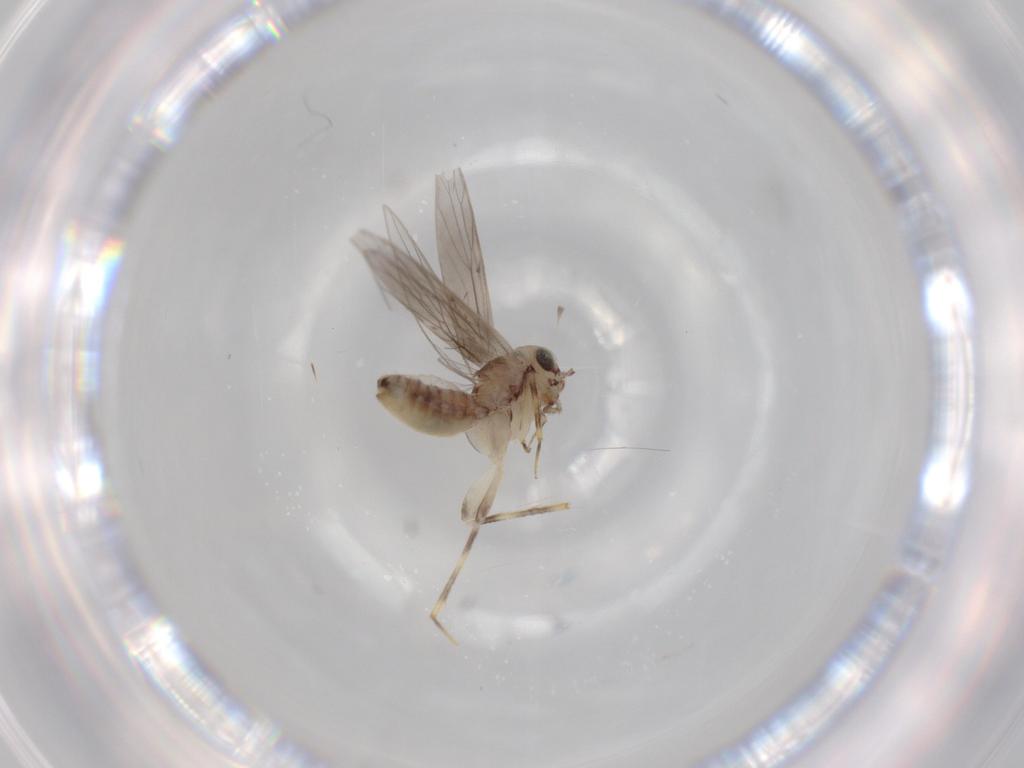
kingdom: Animalia
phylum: Arthropoda
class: Insecta
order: Psocodea
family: Lepidopsocidae
